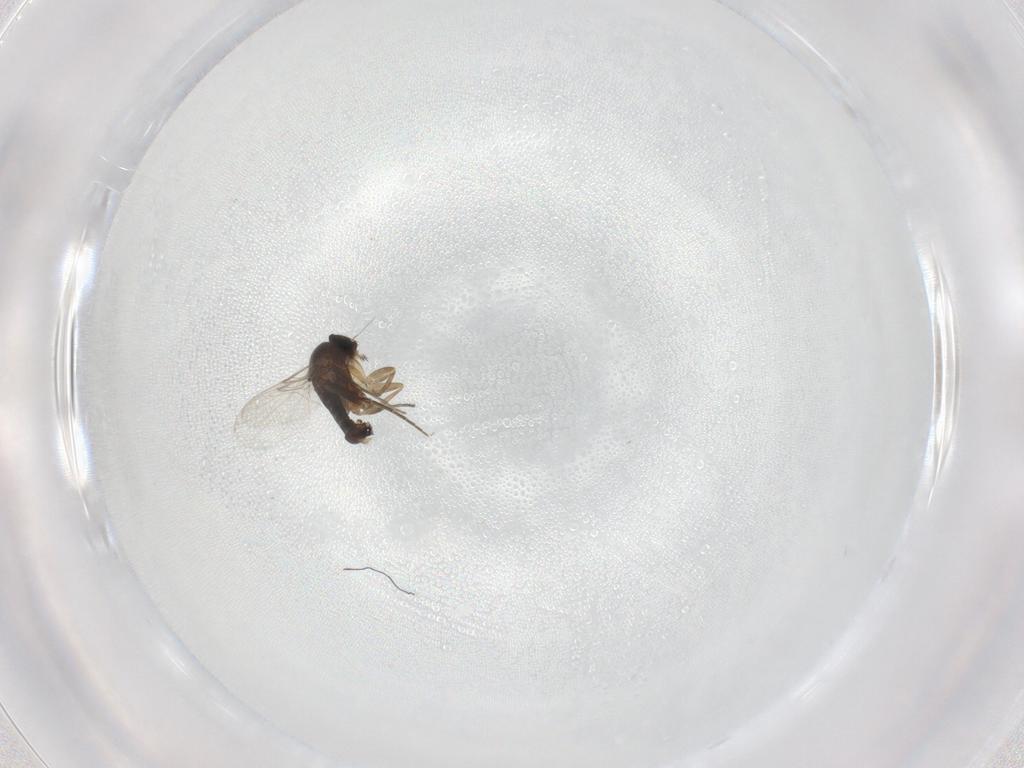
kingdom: Animalia
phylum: Arthropoda
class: Insecta
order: Diptera
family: Phoridae
